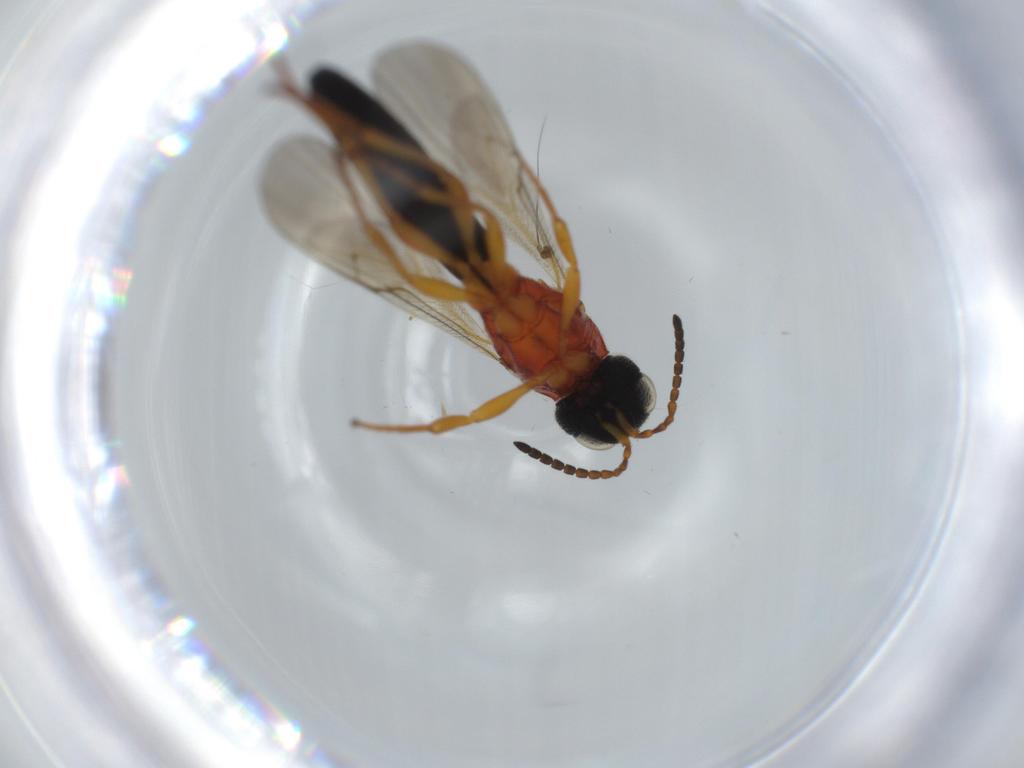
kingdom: Animalia
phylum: Arthropoda
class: Insecta
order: Hymenoptera
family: Scelionidae
